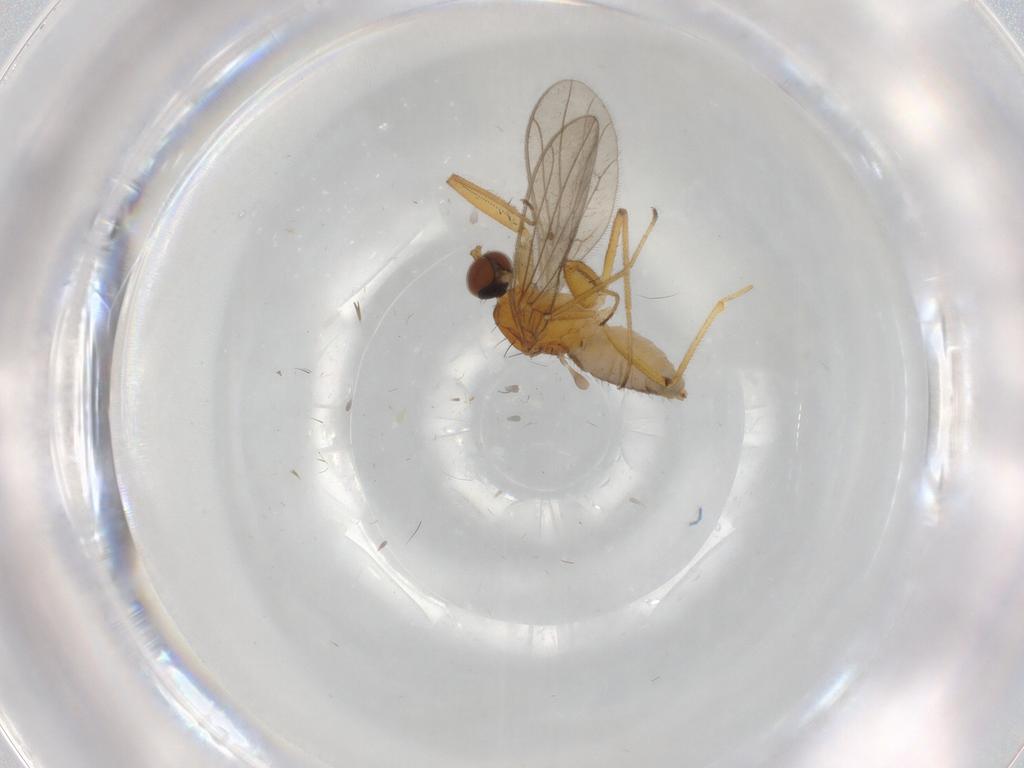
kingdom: Animalia
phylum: Arthropoda
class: Insecta
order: Diptera
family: Empididae
